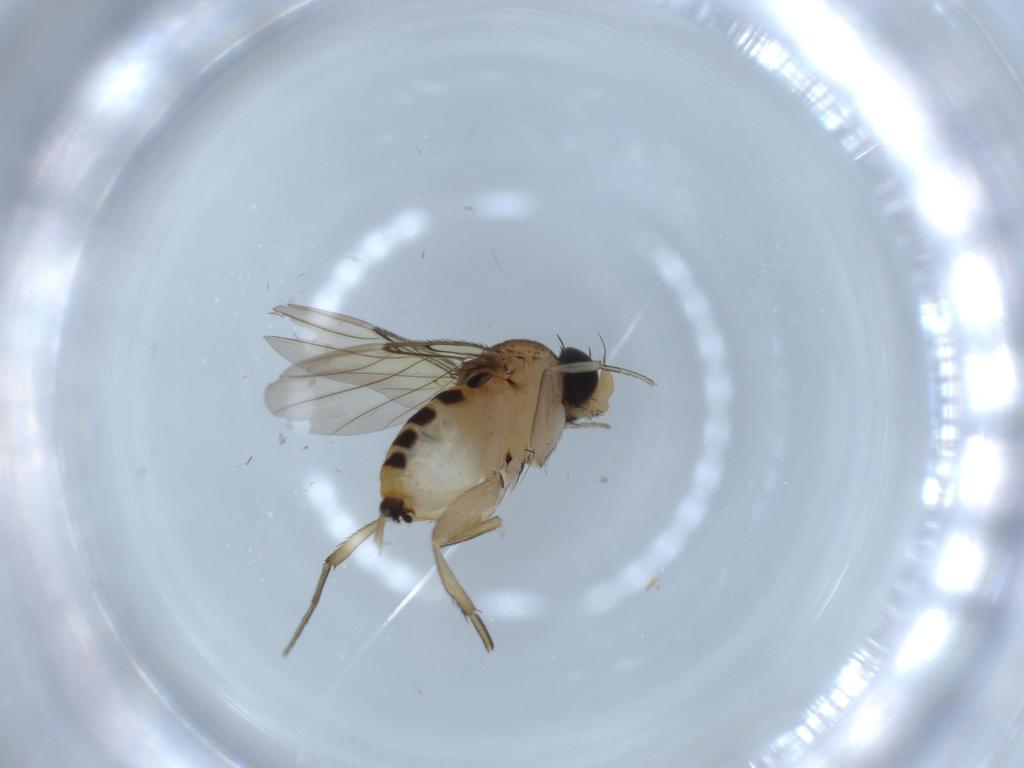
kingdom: Animalia
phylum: Arthropoda
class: Insecta
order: Diptera
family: Phoridae
